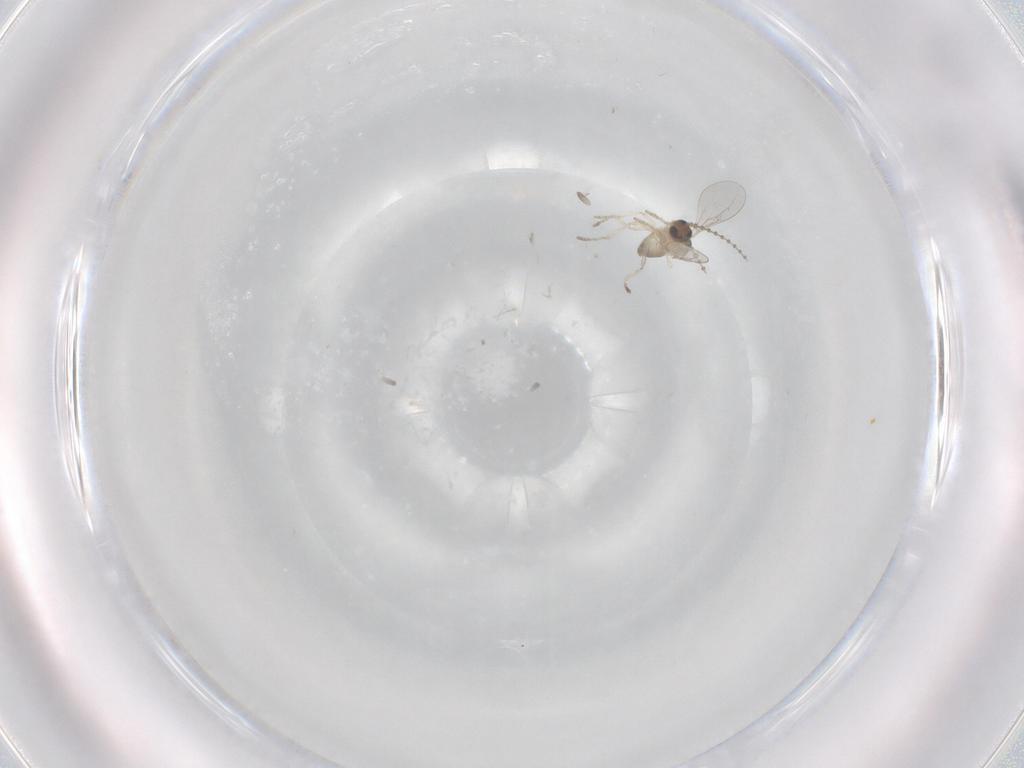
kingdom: Animalia
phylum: Arthropoda
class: Insecta
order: Diptera
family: Cecidomyiidae
